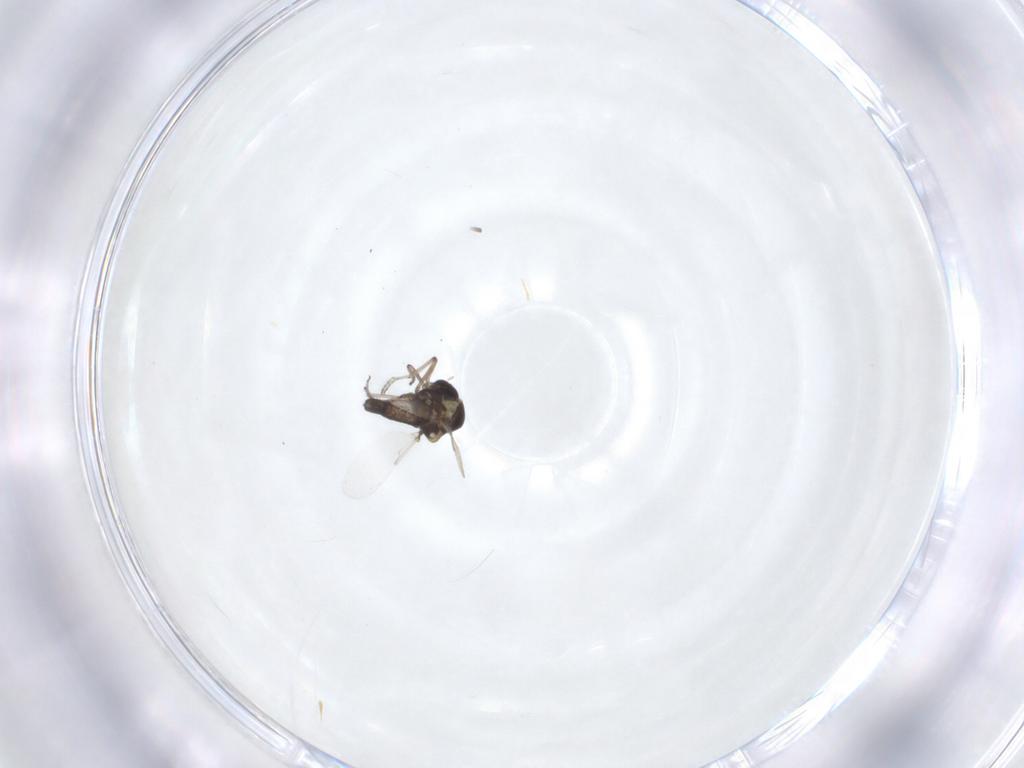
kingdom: Animalia
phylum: Arthropoda
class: Insecta
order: Diptera
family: Ceratopogonidae
